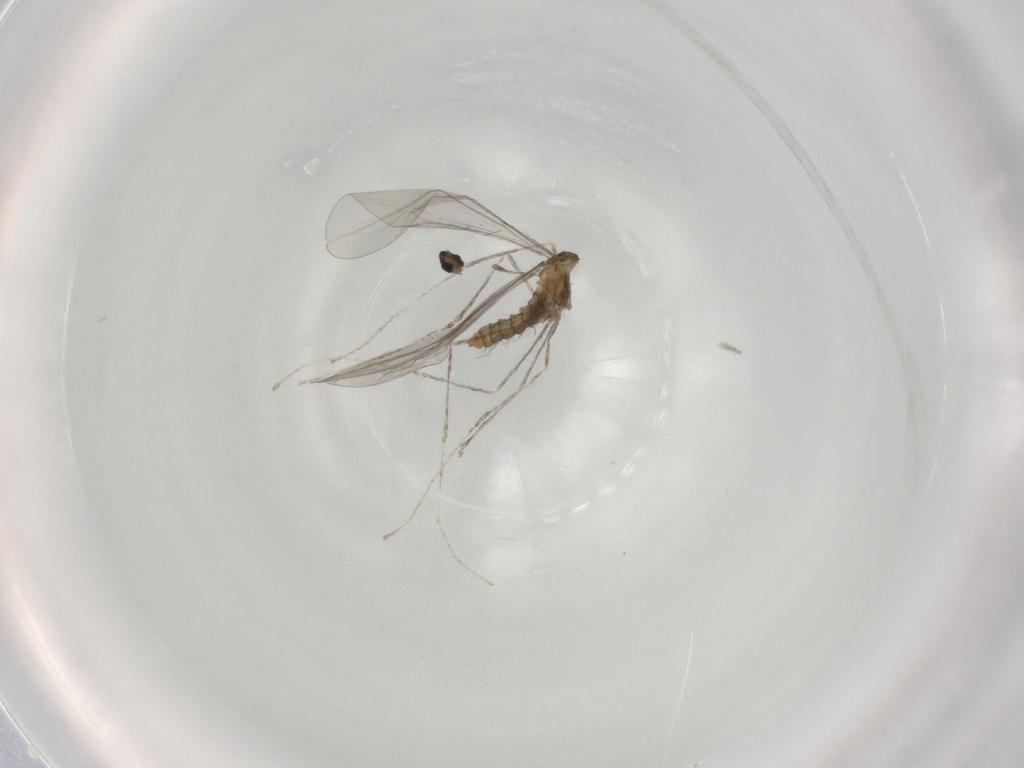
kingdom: Animalia
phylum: Arthropoda
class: Insecta
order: Diptera
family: Cecidomyiidae
